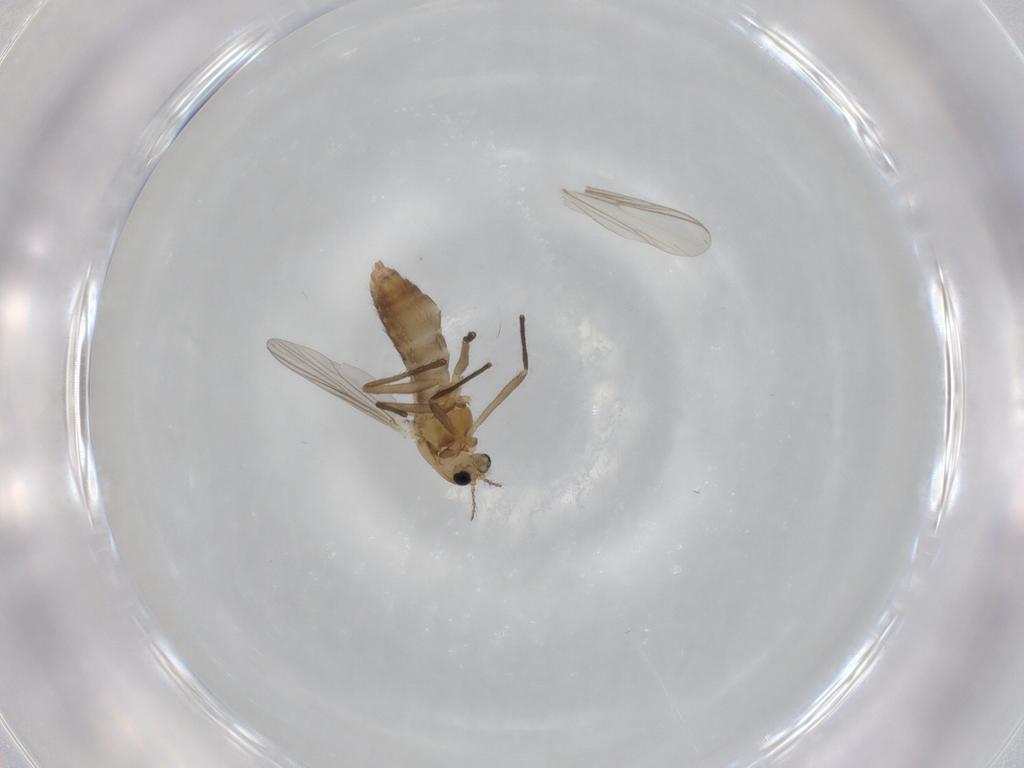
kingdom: Animalia
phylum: Arthropoda
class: Insecta
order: Diptera
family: Chironomidae
